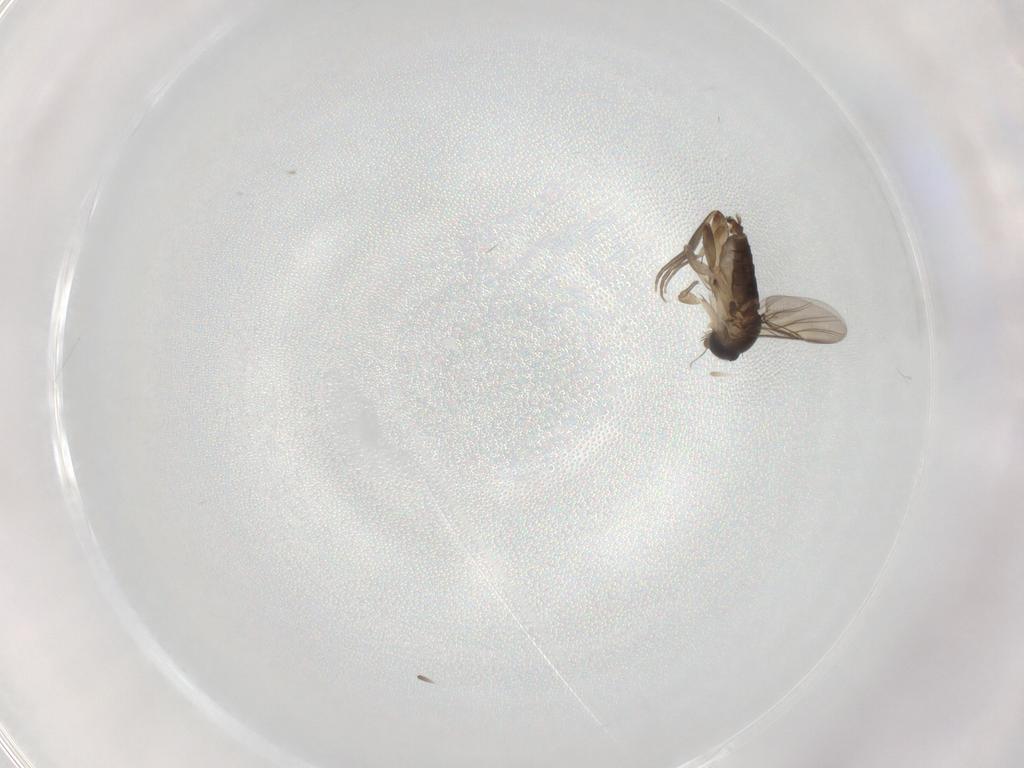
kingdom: Animalia
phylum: Arthropoda
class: Insecta
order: Diptera
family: Phoridae
